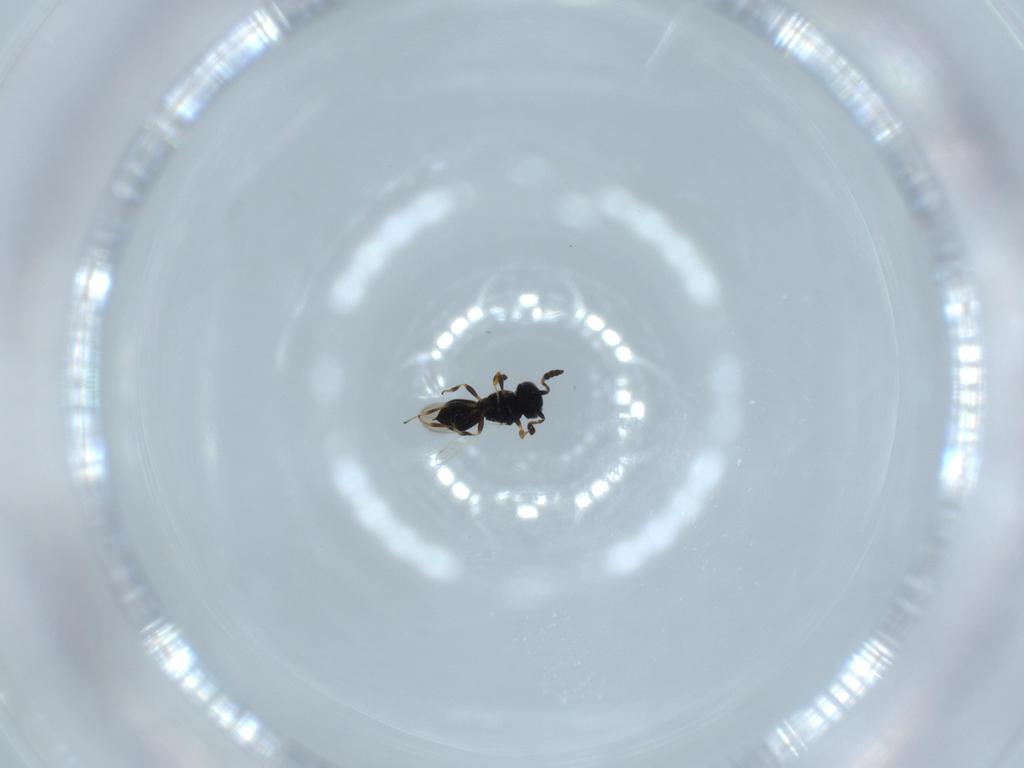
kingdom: Animalia
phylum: Arthropoda
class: Insecta
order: Hymenoptera
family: Scelionidae
